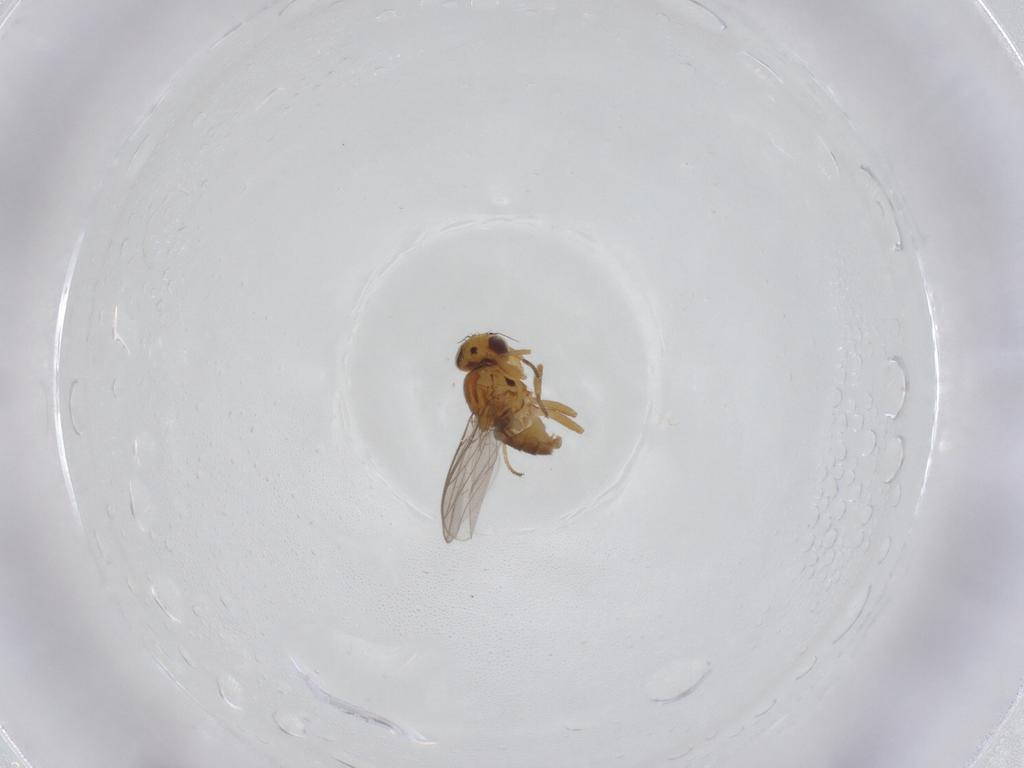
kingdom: Animalia
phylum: Arthropoda
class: Insecta
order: Diptera
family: Chloropidae
